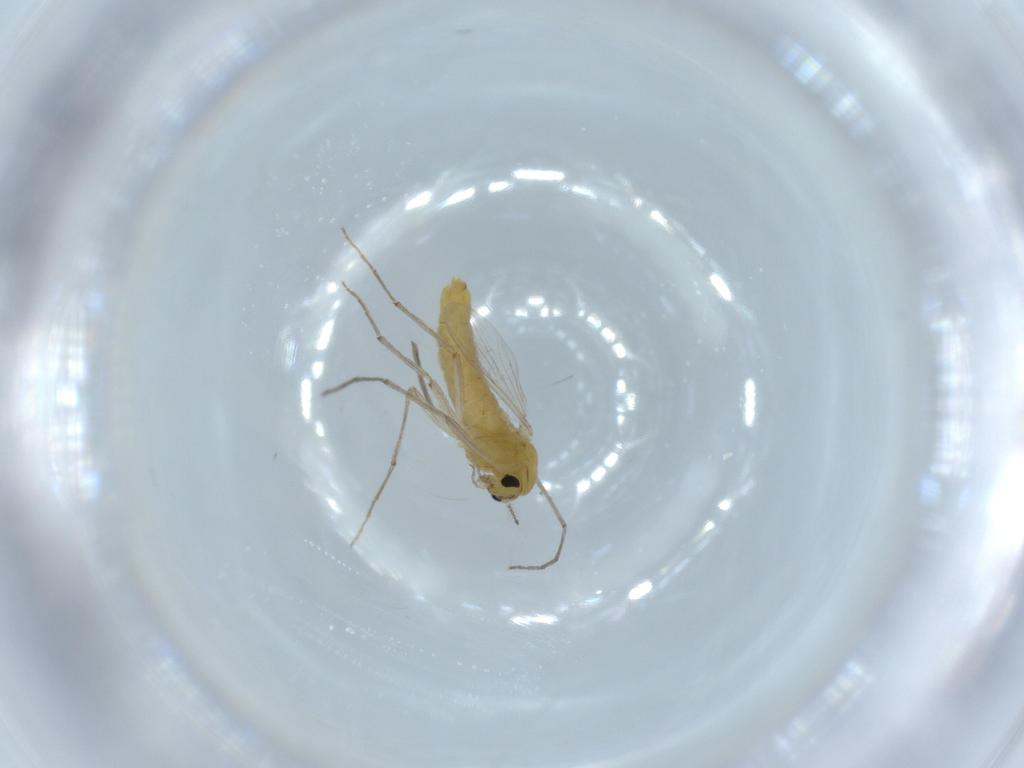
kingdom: Animalia
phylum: Arthropoda
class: Insecta
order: Diptera
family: Chironomidae
